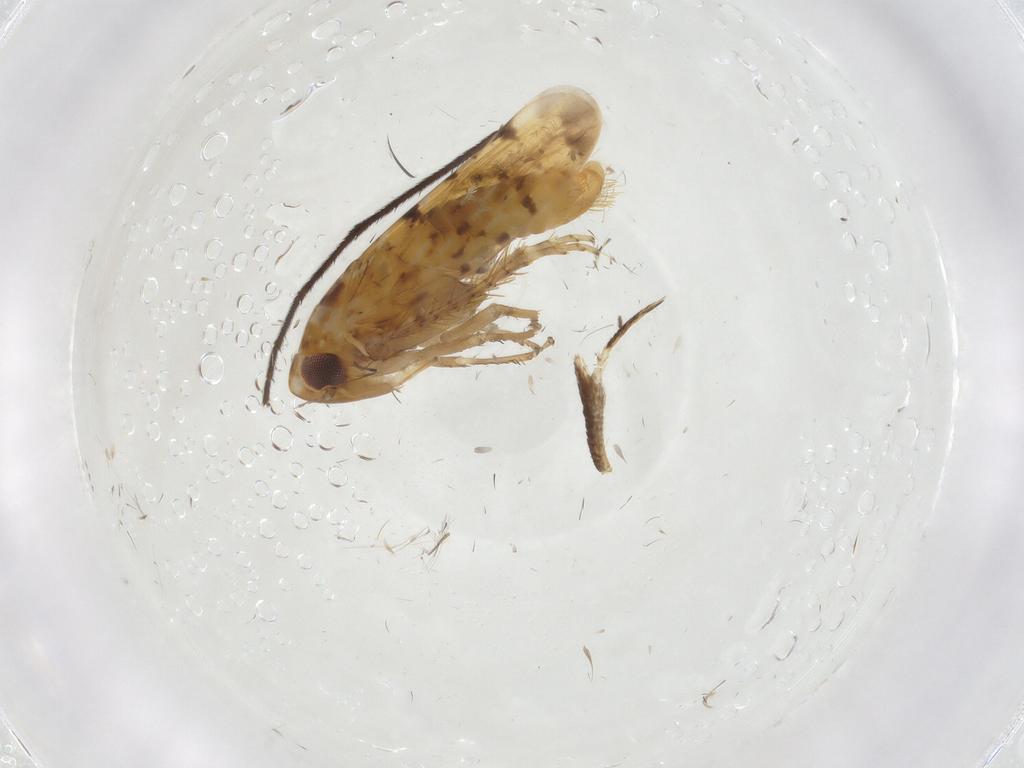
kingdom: Animalia
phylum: Arthropoda
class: Insecta
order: Hemiptera
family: Cicadellidae
